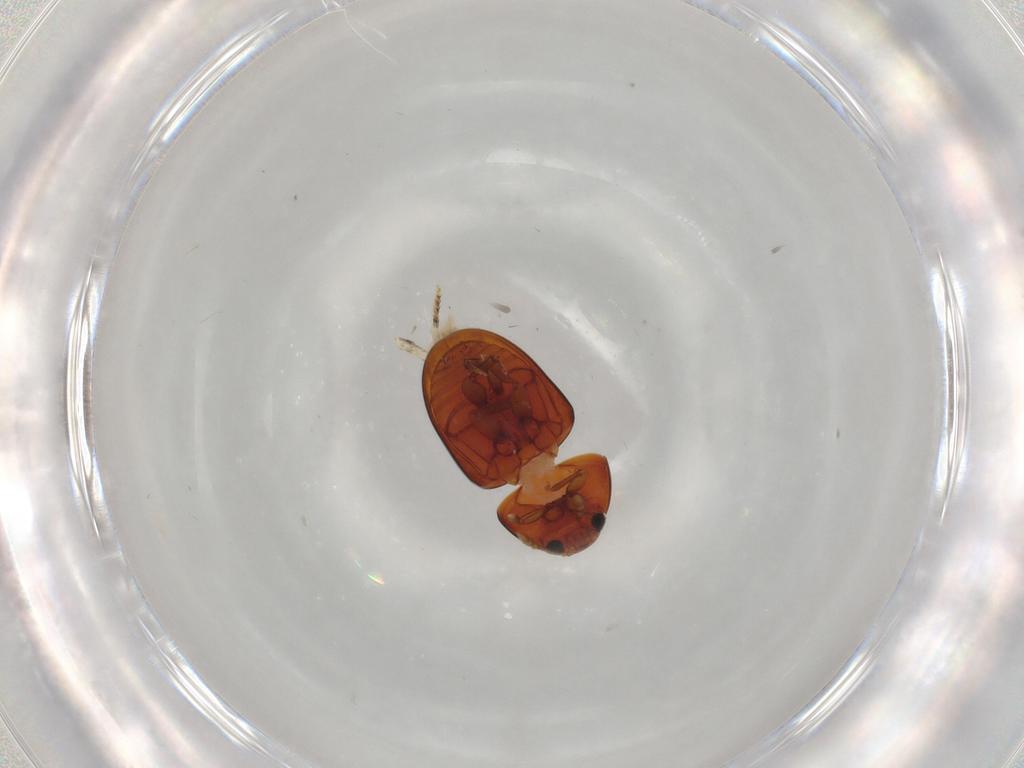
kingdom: Animalia
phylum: Arthropoda
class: Insecta
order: Coleoptera
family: Phalacridae
